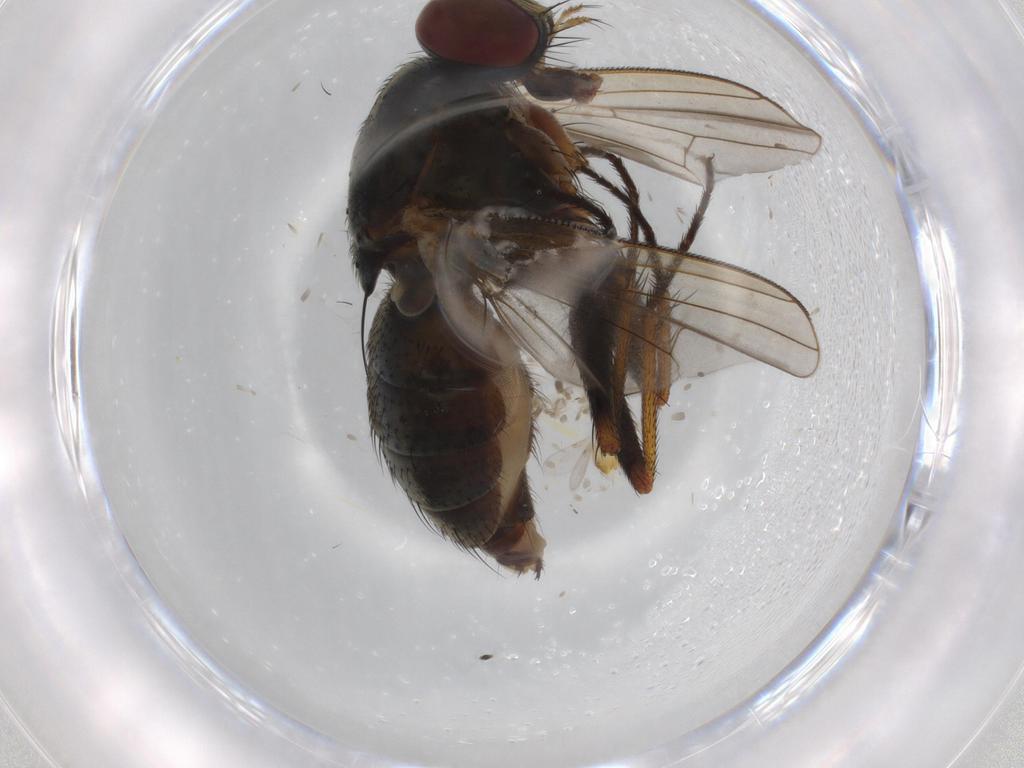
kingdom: Animalia
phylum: Arthropoda
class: Insecta
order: Diptera
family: Muscidae
